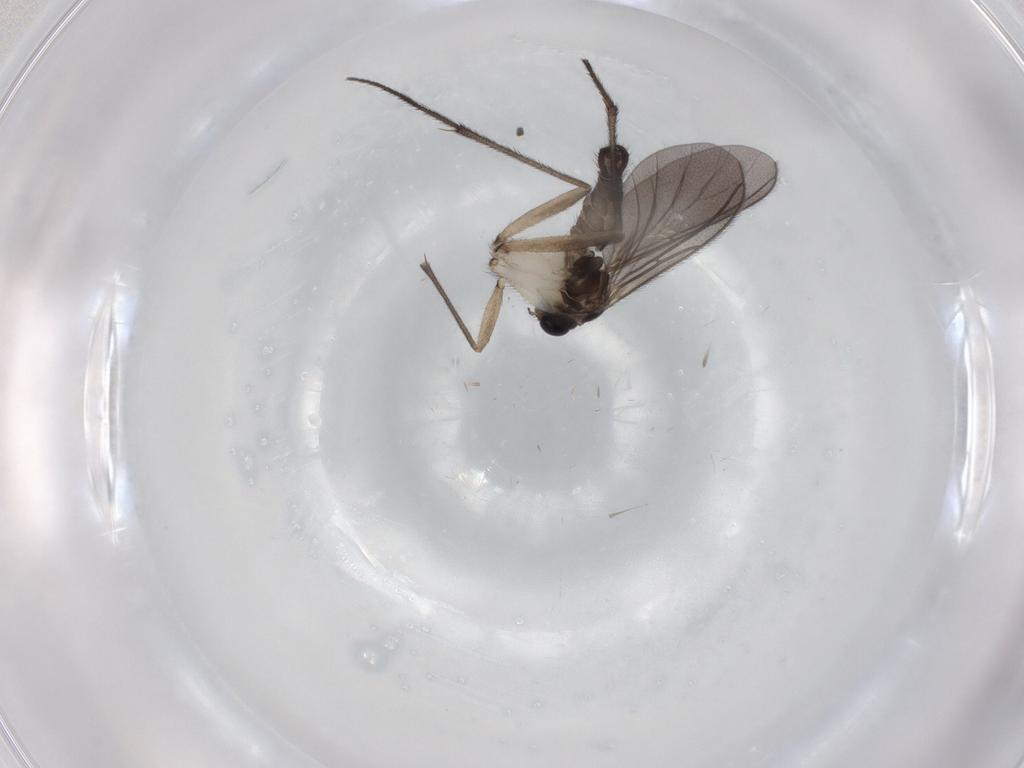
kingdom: Animalia
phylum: Arthropoda
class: Insecta
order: Diptera
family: Sciaridae
